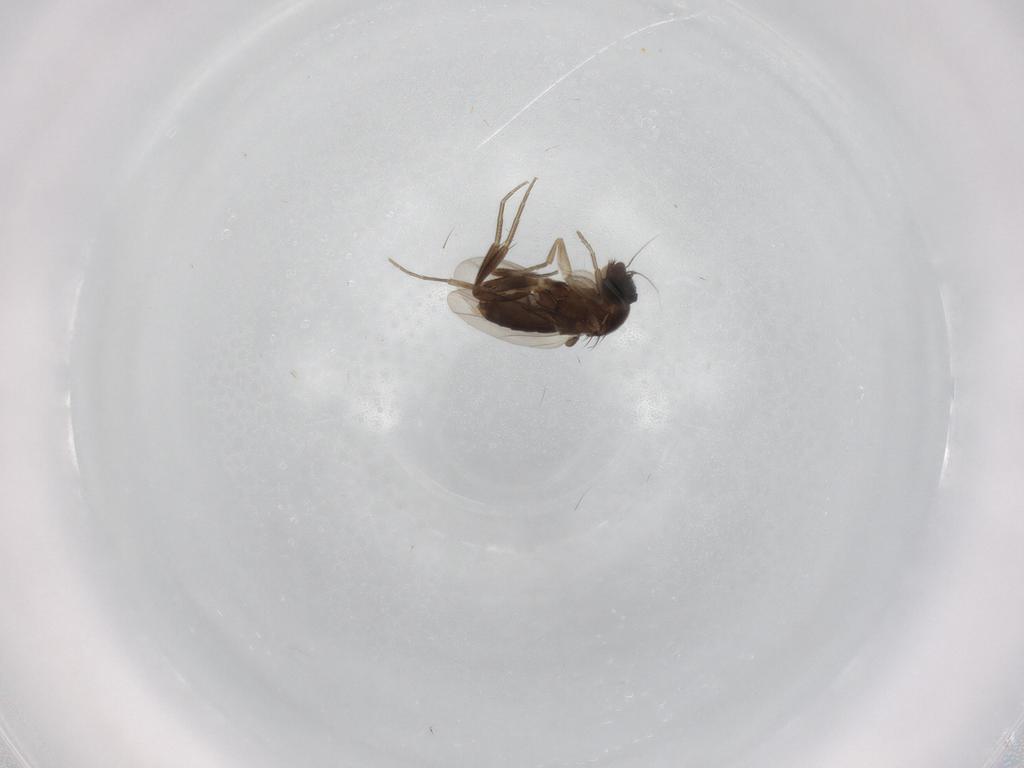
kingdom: Animalia
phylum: Arthropoda
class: Insecta
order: Diptera
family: Phoridae
